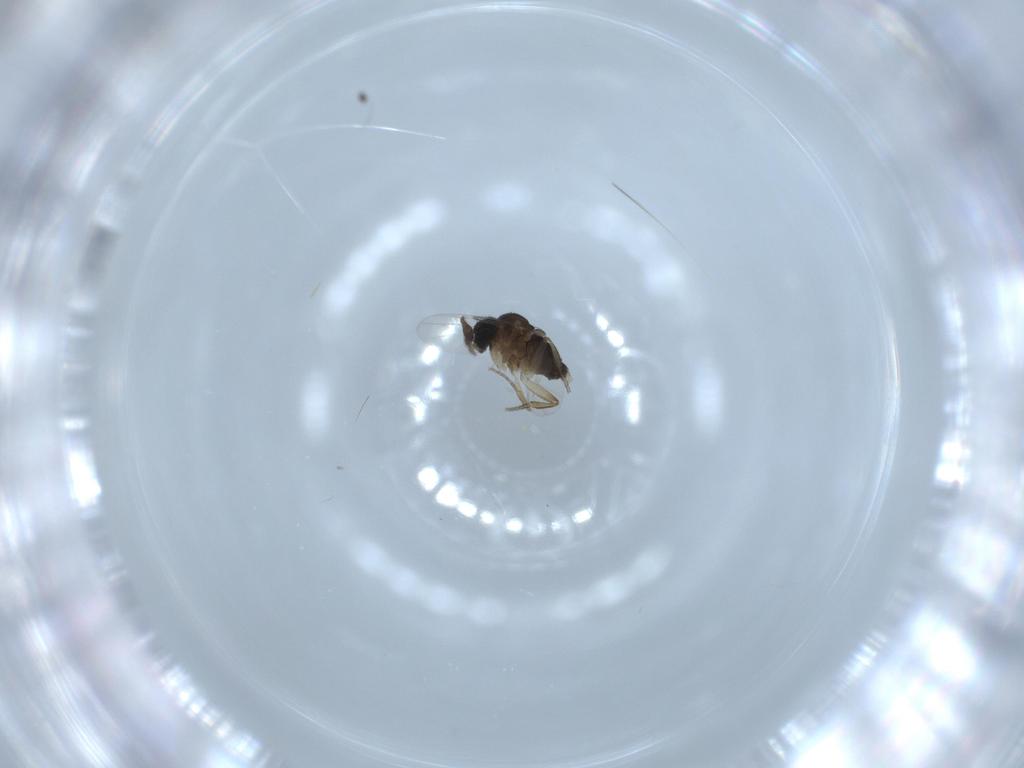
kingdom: Animalia
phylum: Arthropoda
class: Insecta
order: Diptera
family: Phoridae
